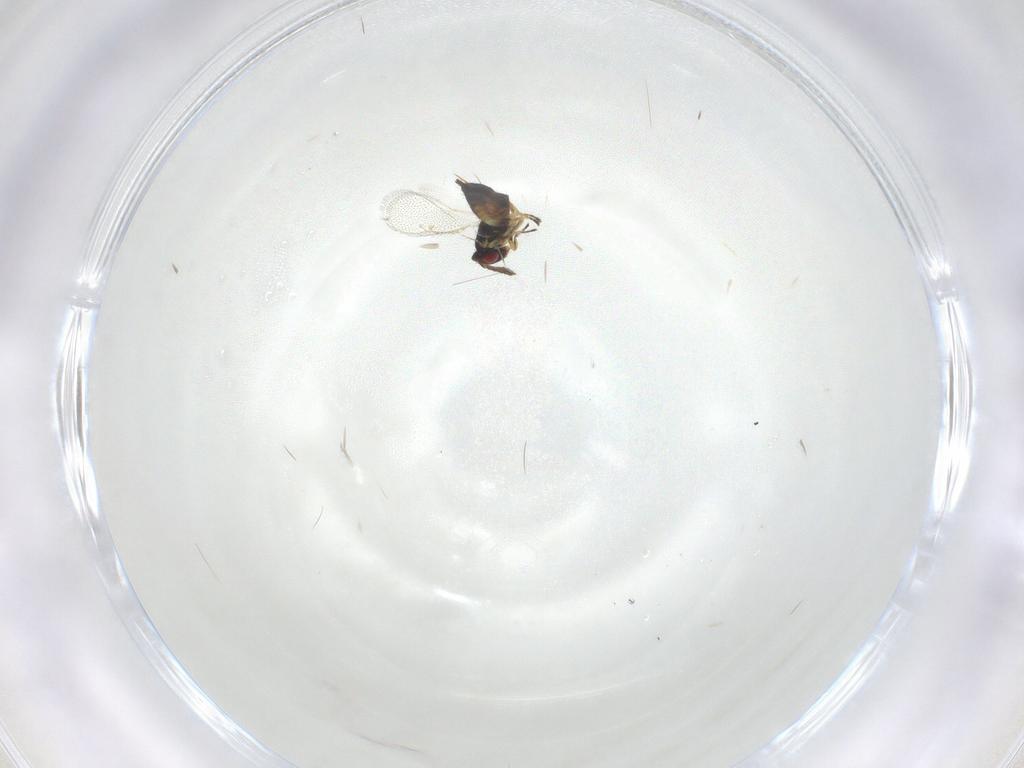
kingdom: Animalia
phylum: Arthropoda
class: Insecta
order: Hymenoptera
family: Eulophidae
